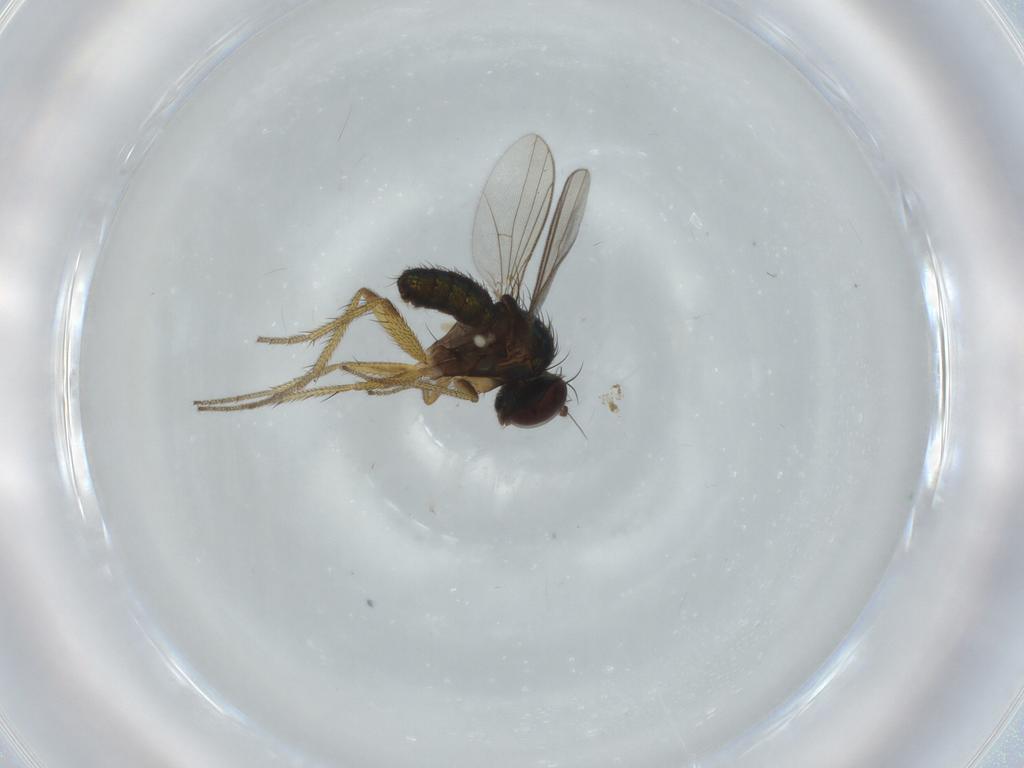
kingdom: Animalia
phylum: Arthropoda
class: Insecta
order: Diptera
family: Dolichopodidae
